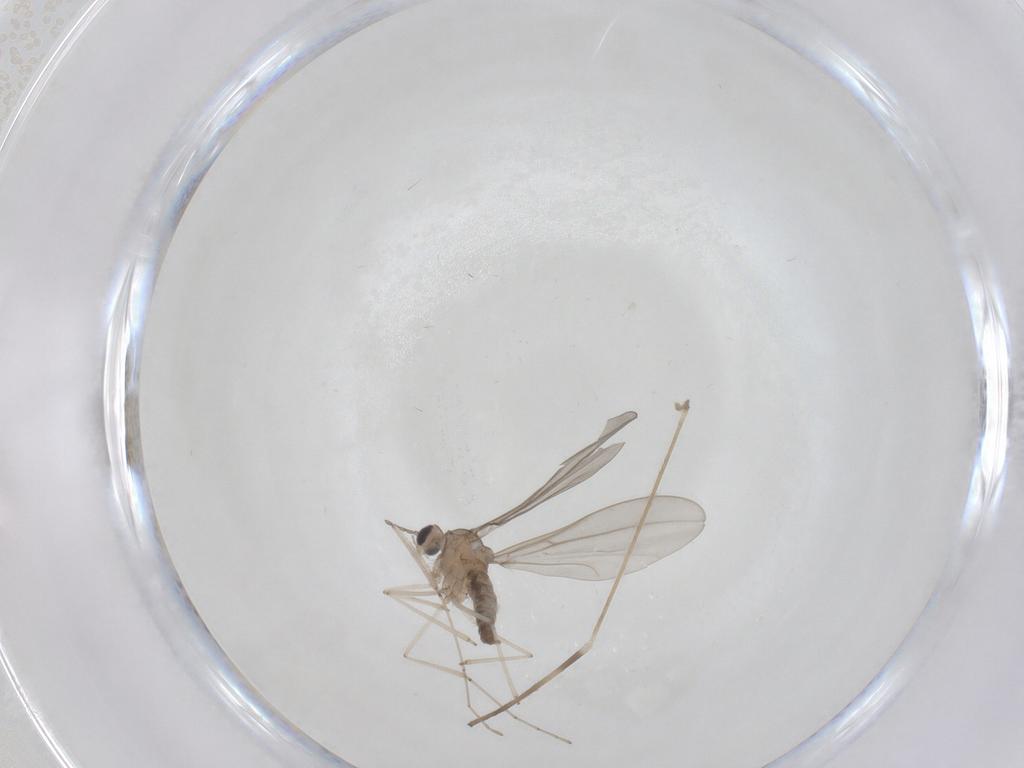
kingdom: Animalia
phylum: Arthropoda
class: Insecta
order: Diptera
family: Limoniidae
